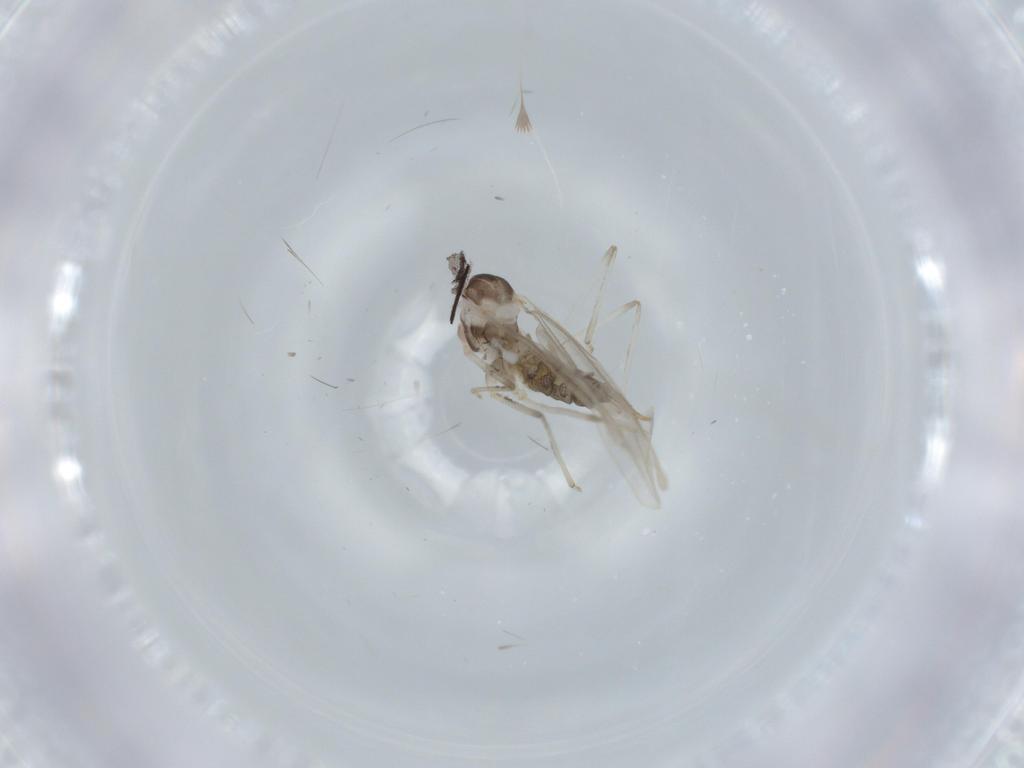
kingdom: Animalia
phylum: Arthropoda
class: Insecta
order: Diptera
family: Cecidomyiidae
